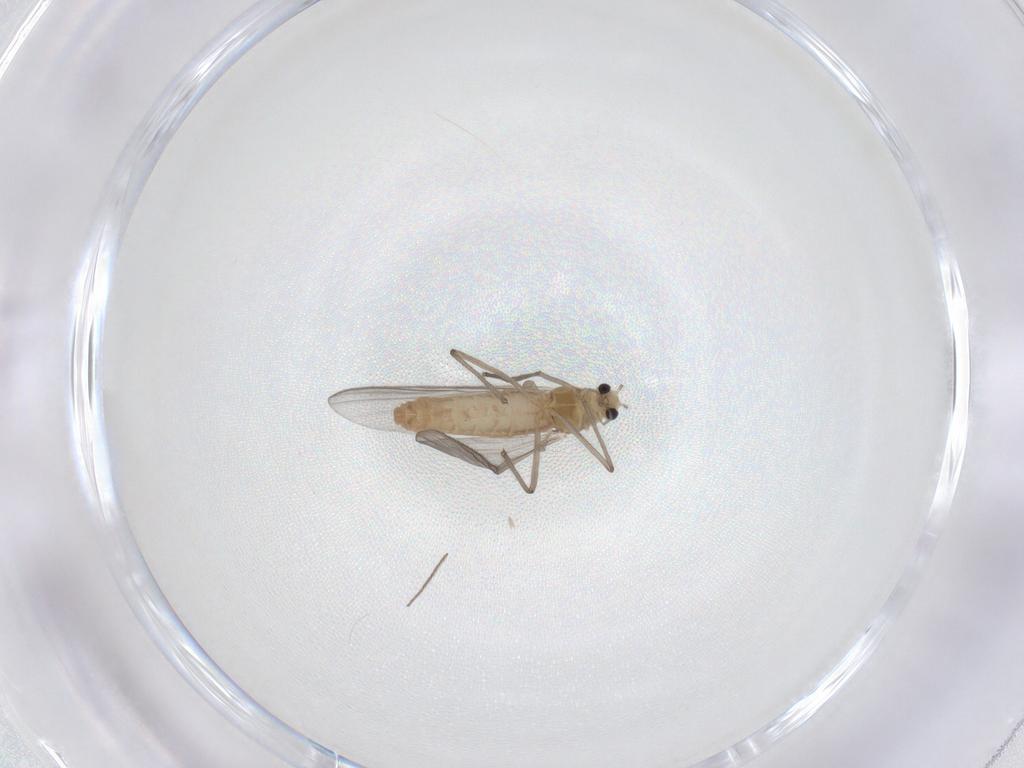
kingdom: Animalia
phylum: Arthropoda
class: Insecta
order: Diptera
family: Chironomidae
